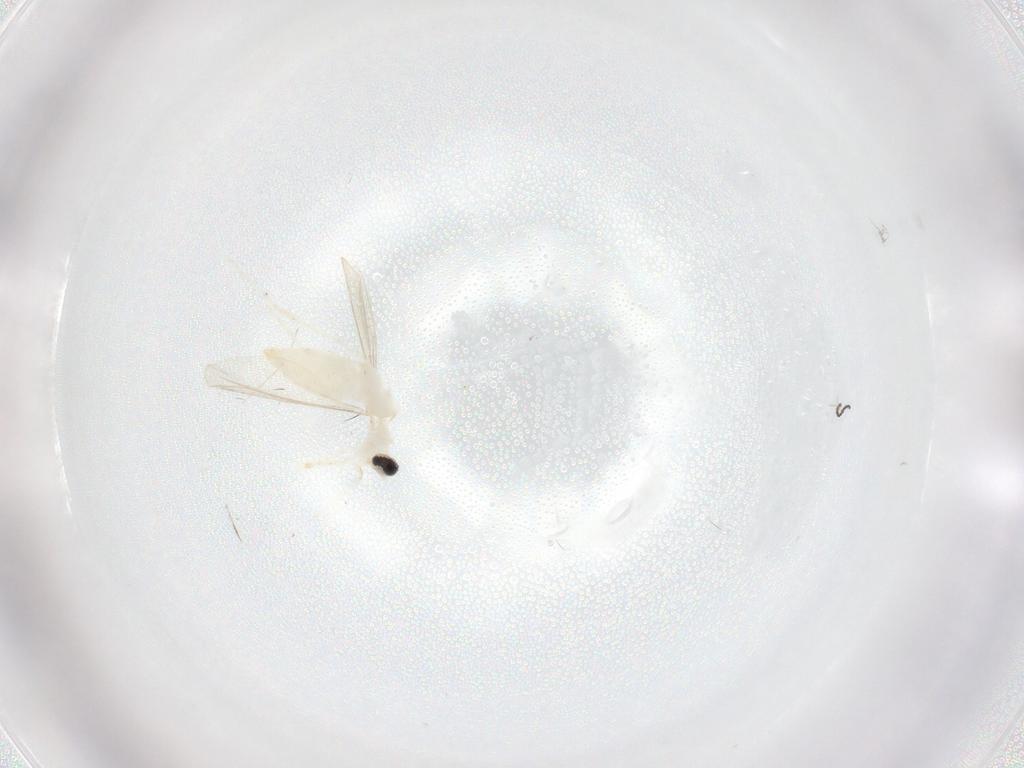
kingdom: Animalia
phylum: Arthropoda
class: Insecta
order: Diptera
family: Cecidomyiidae
